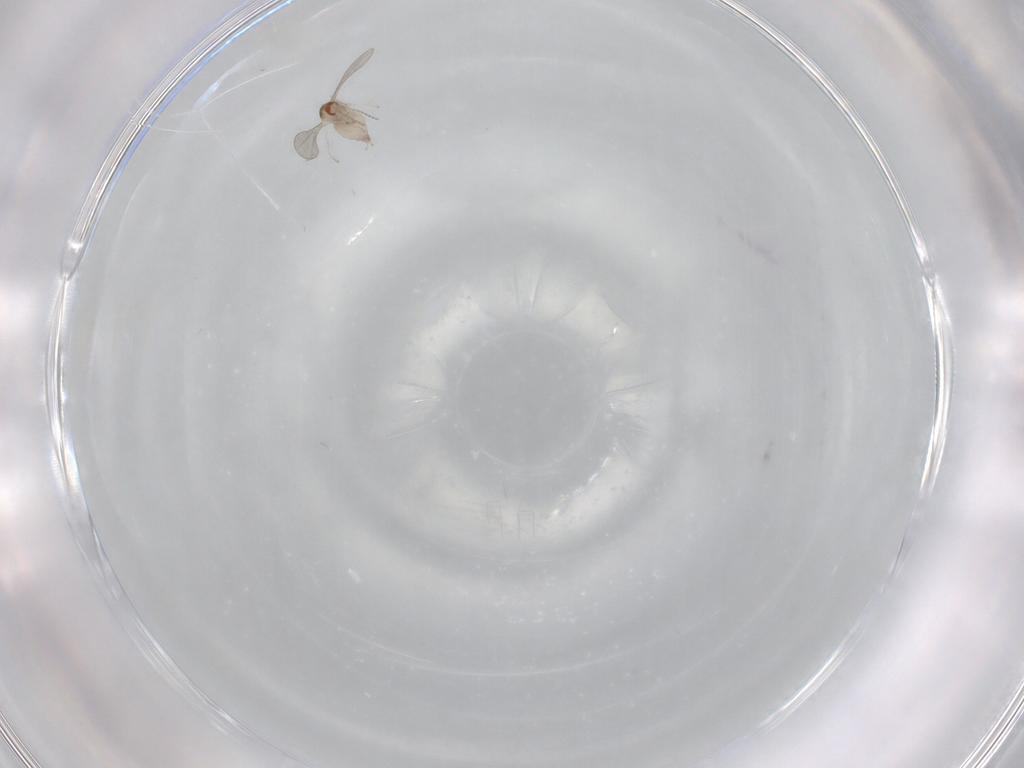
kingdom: Animalia
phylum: Arthropoda
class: Insecta
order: Diptera
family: Cecidomyiidae
